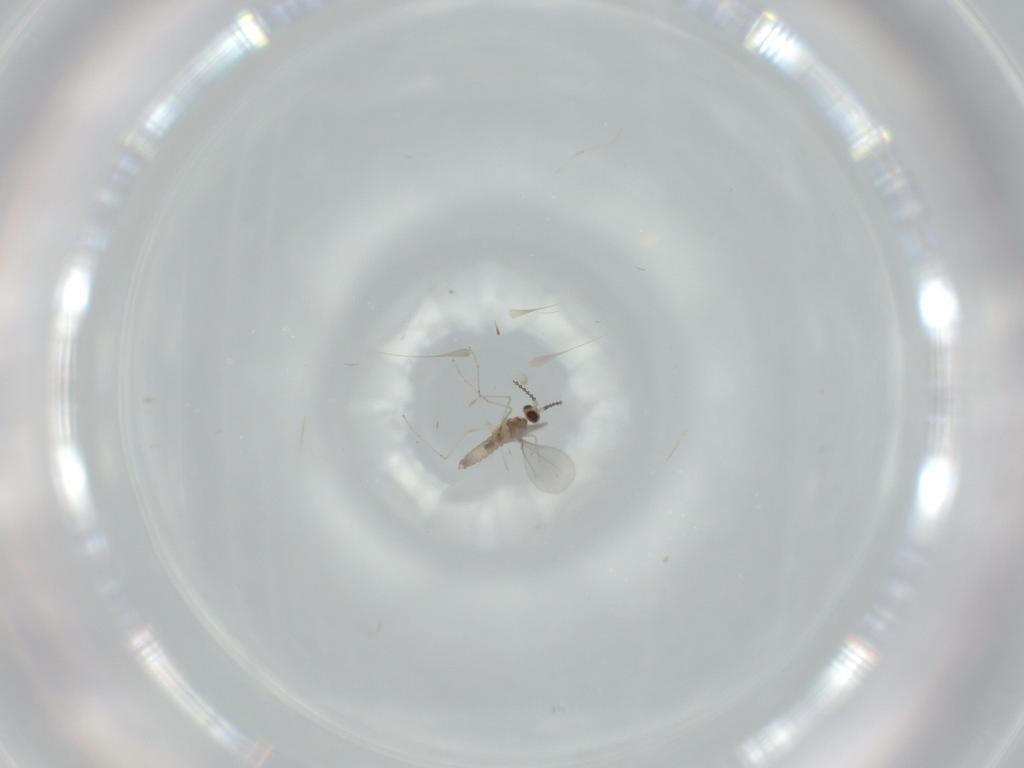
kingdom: Animalia
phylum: Arthropoda
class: Insecta
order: Diptera
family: Cecidomyiidae
